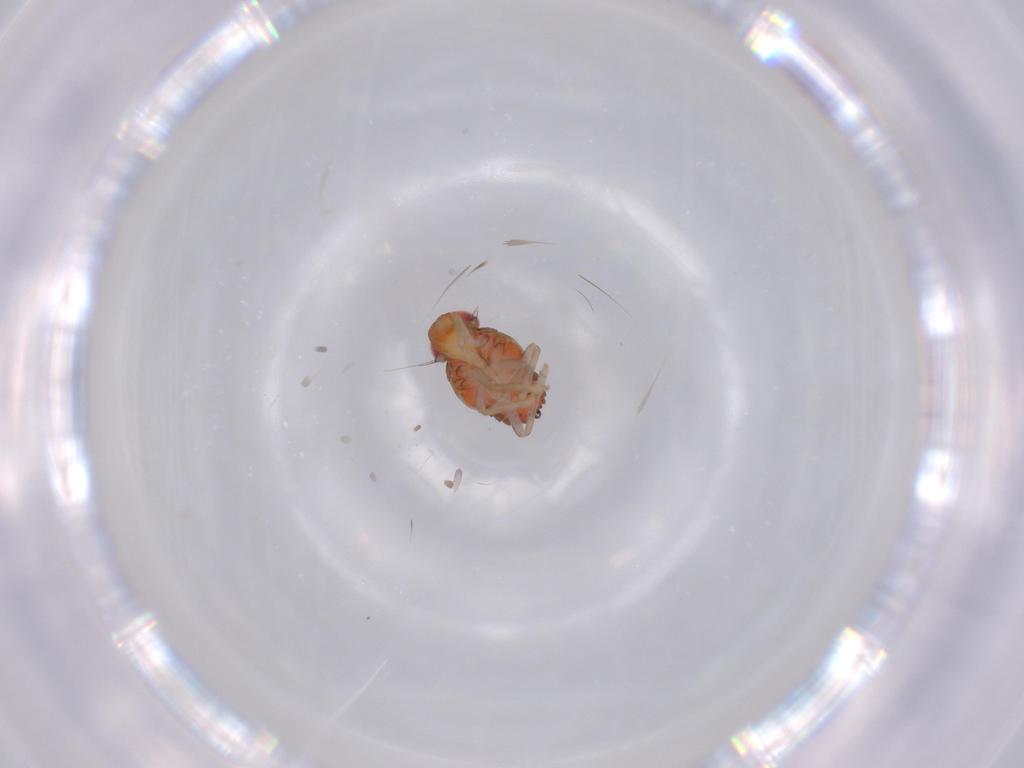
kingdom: Animalia
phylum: Arthropoda
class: Insecta
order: Hemiptera
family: Issidae
